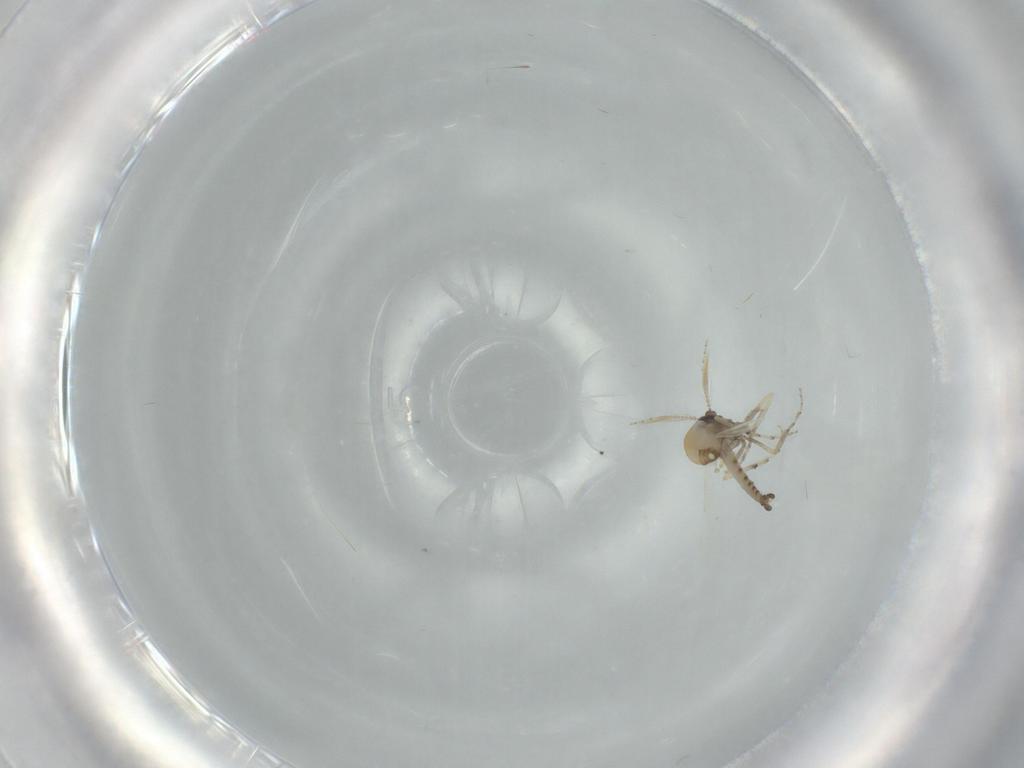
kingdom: Animalia
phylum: Arthropoda
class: Insecta
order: Diptera
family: Ceratopogonidae
